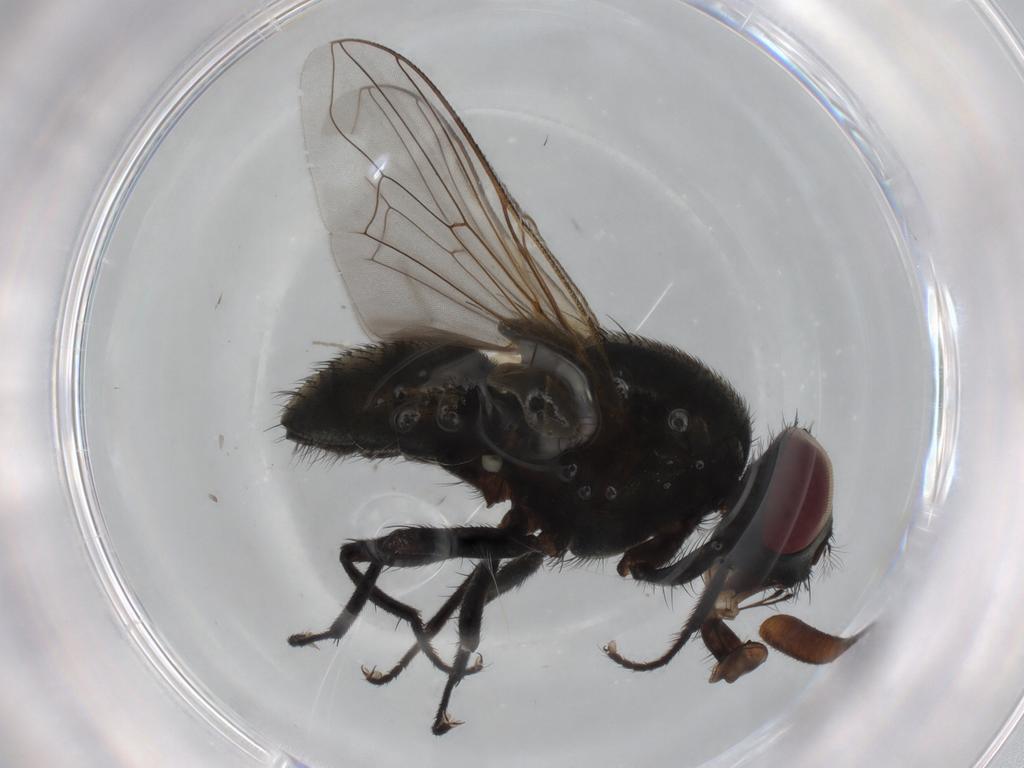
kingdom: Animalia
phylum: Arthropoda
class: Insecta
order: Diptera
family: Muscidae
